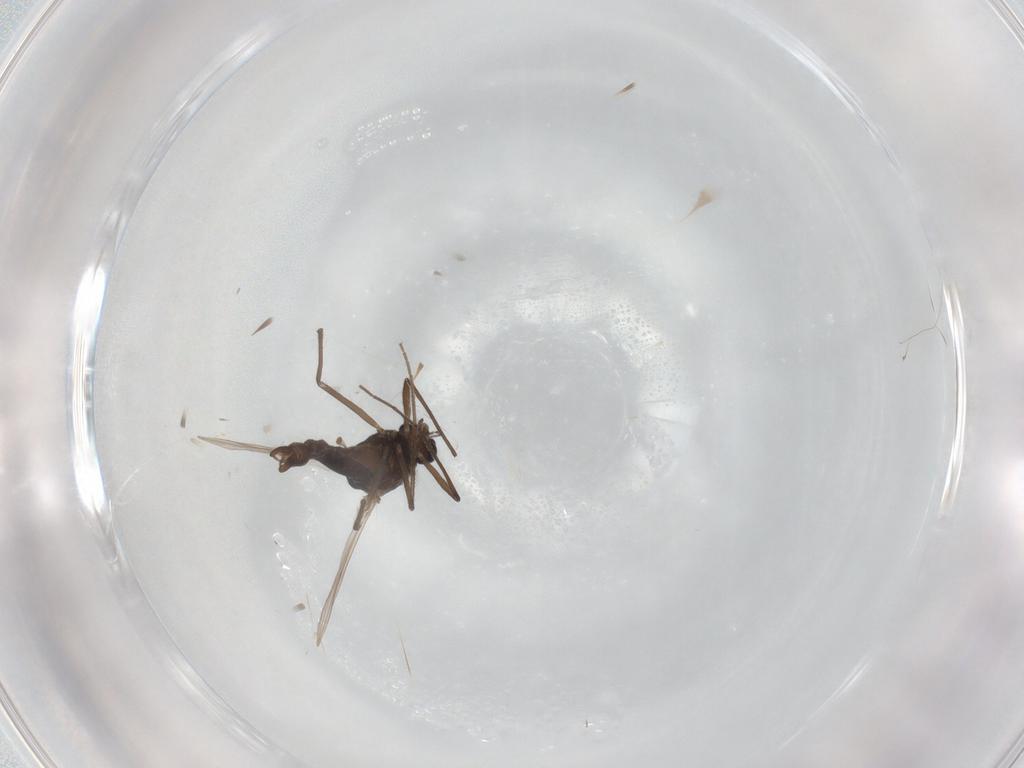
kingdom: Animalia
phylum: Arthropoda
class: Insecta
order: Diptera
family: Chironomidae
